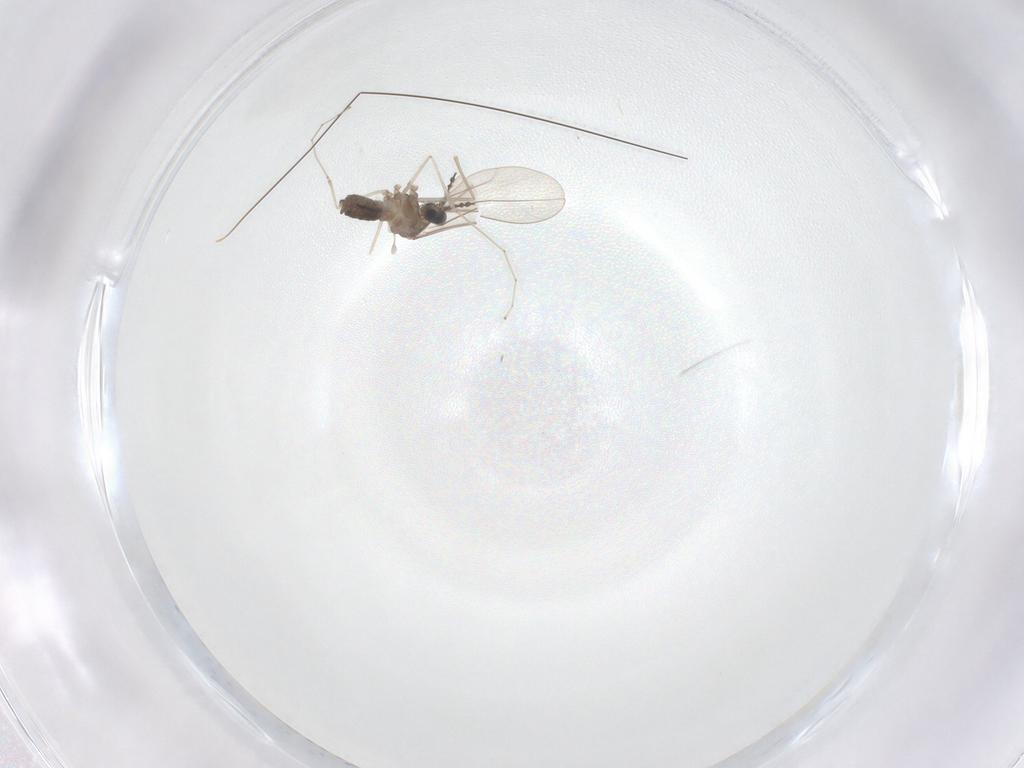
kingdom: Animalia
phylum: Arthropoda
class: Insecta
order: Diptera
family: Cecidomyiidae
